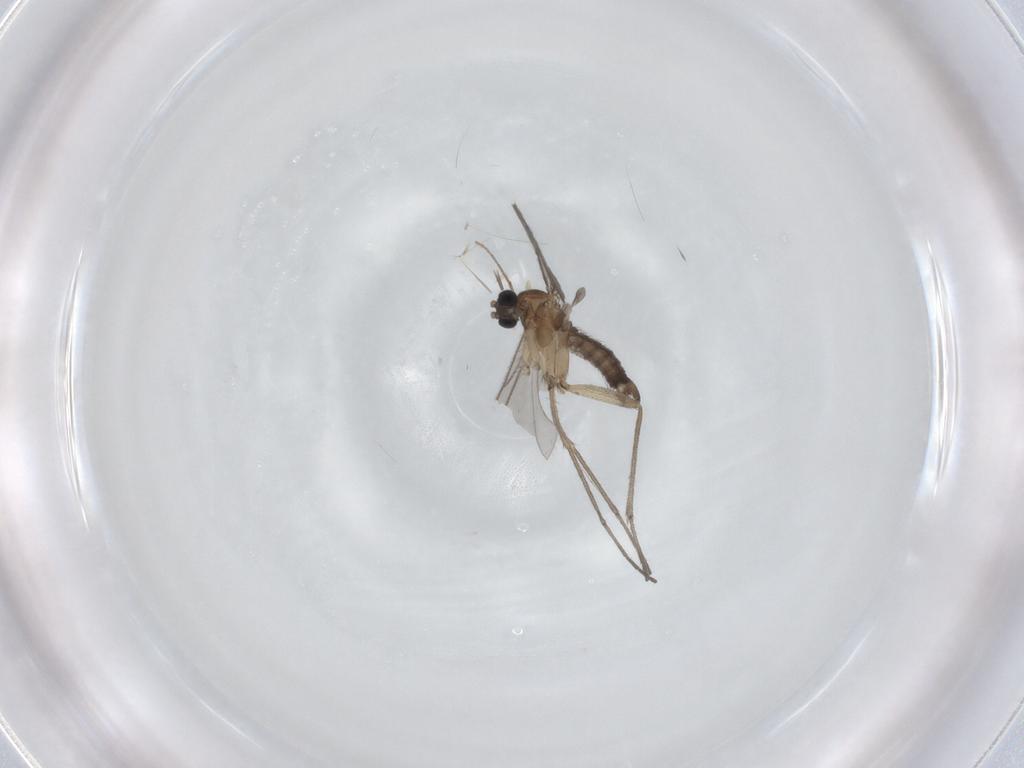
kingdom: Animalia
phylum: Arthropoda
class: Insecta
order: Diptera
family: Sciaridae
